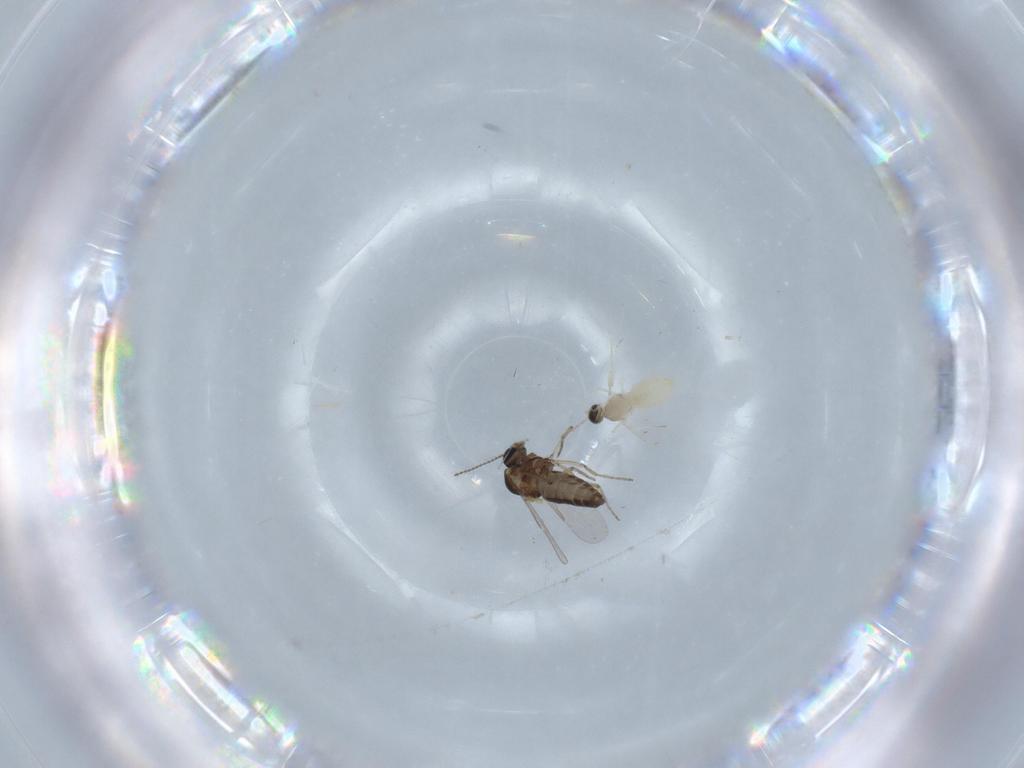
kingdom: Animalia
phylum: Arthropoda
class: Insecta
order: Diptera
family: Ceratopogonidae
